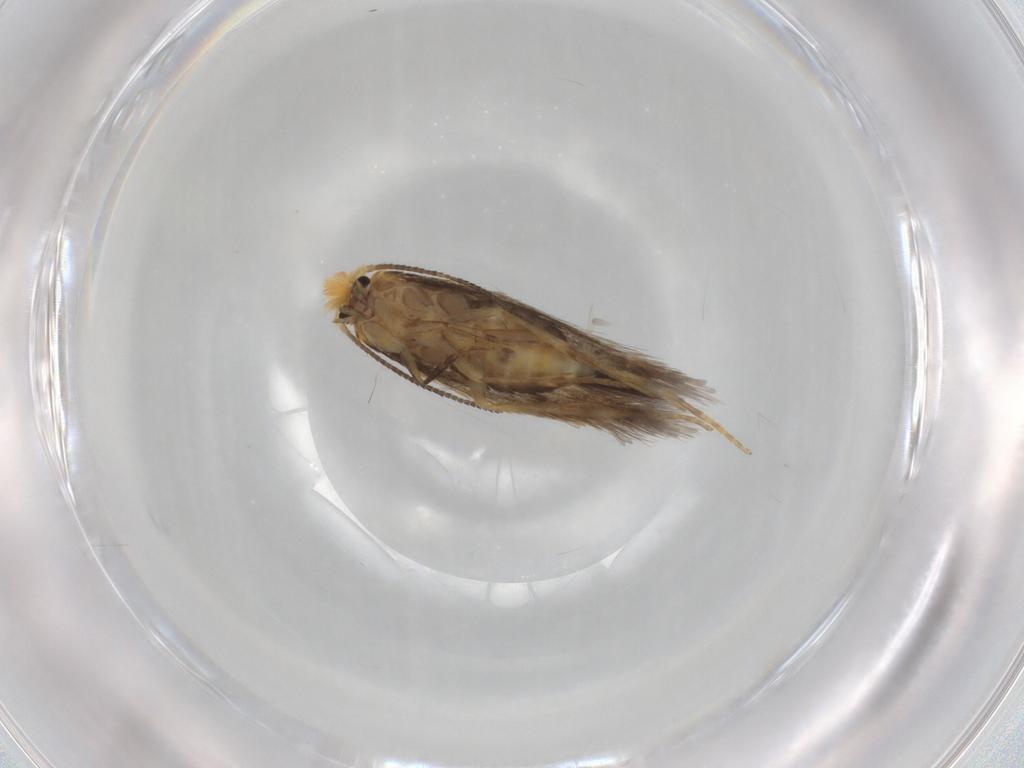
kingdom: Animalia
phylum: Arthropoda
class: Insecta
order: Lepidoptera
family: Nepticulidae
